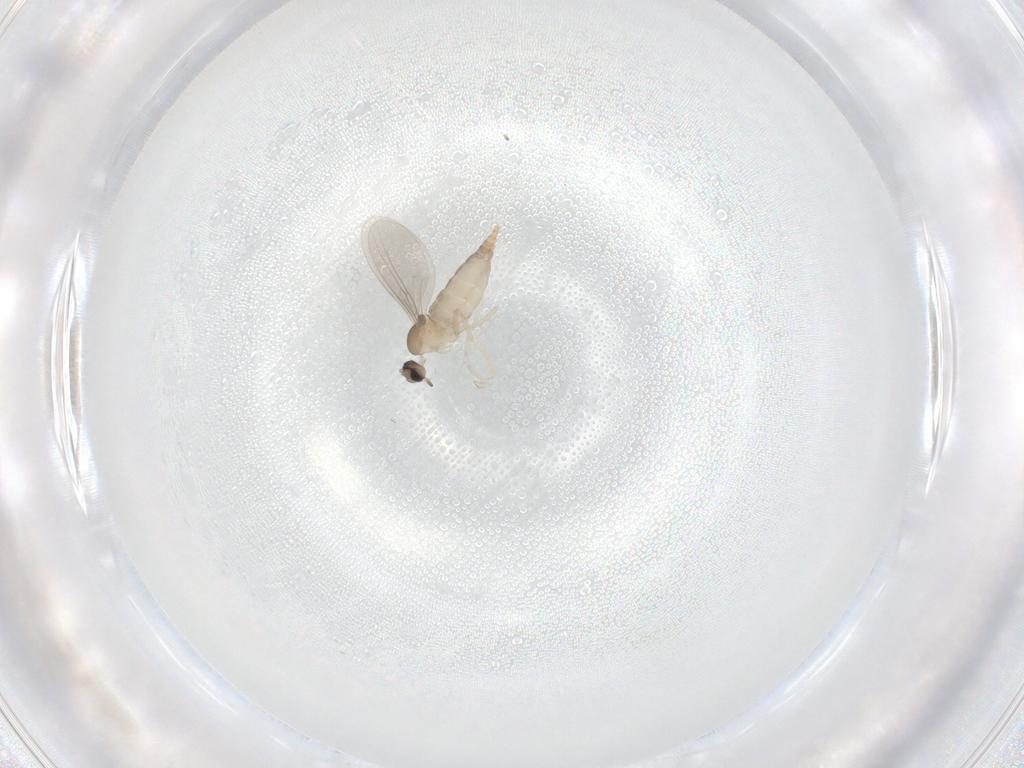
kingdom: Animalia
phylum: Arthropoda
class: Insecta
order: Diptera
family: Cecidomyiidae
